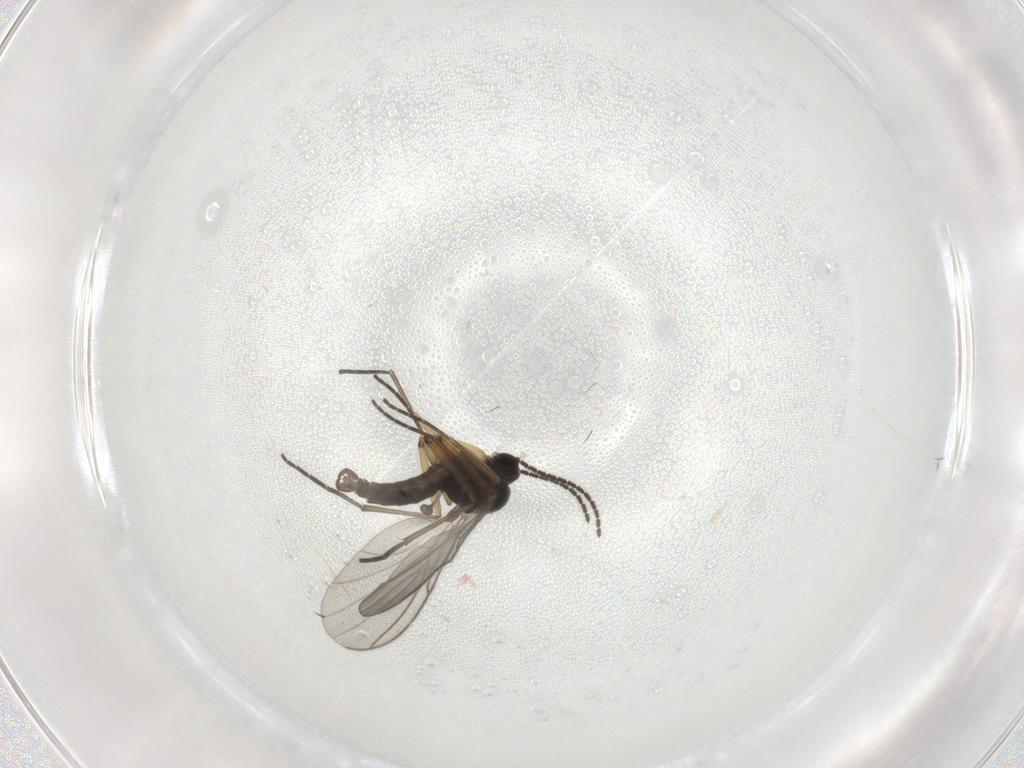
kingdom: Animalia
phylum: Arthropoda
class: Insecta
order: Diptera
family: Sciaridae
